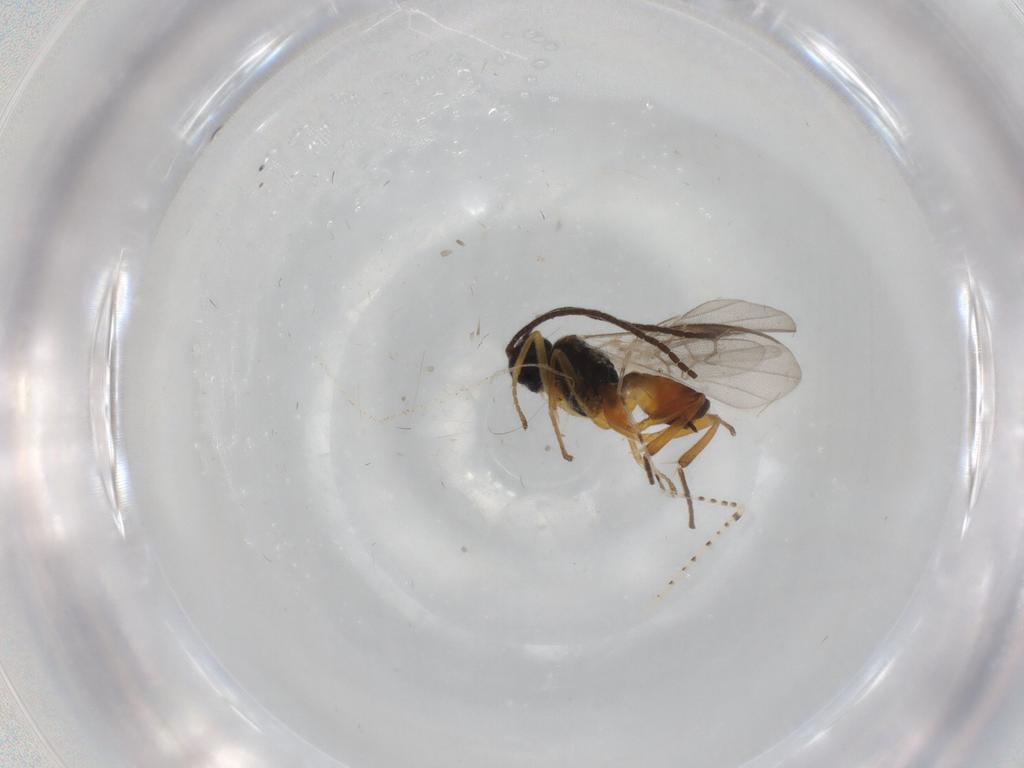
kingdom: Animalia
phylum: Arthropoda
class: Insecta
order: Hymenoptera
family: Braconidae
